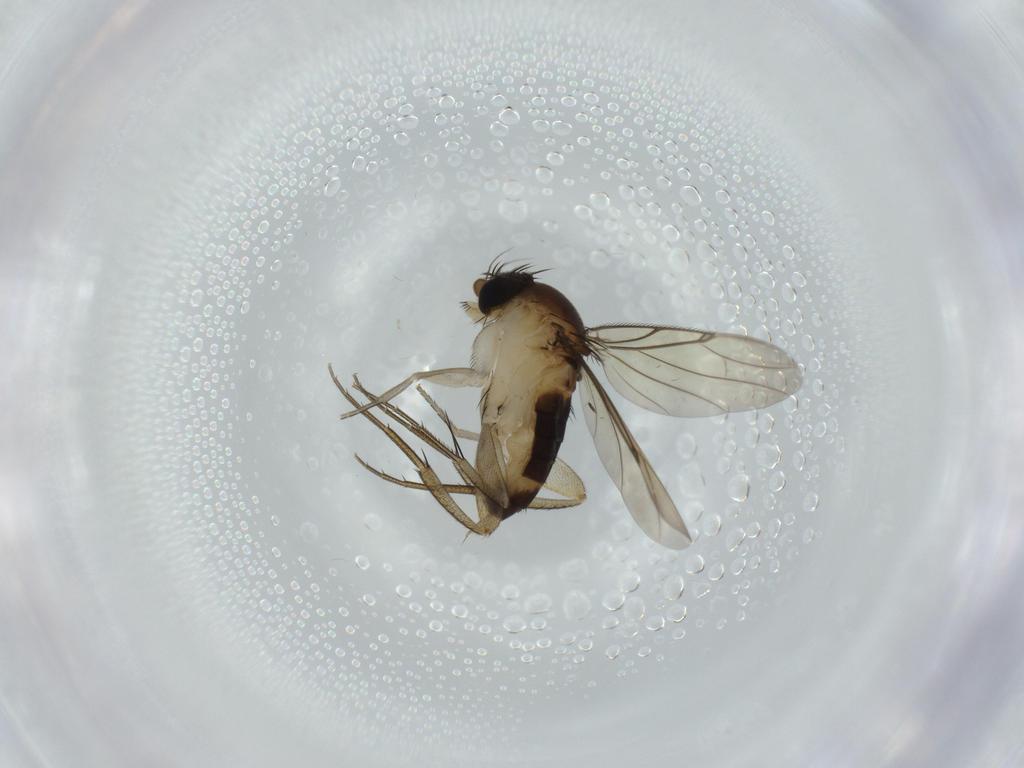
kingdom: Animalia
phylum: Arthropoda
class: Insecta
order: Diptera
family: Phoridae
